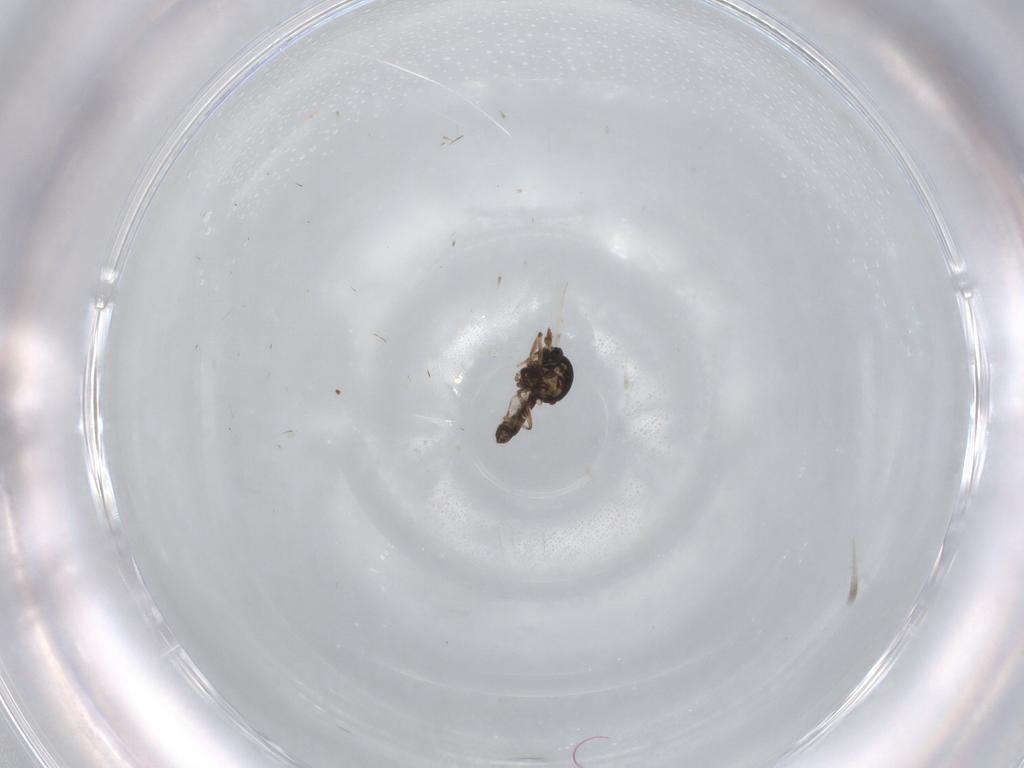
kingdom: Animalia
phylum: Arthropoda
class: Insecta
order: Diptera
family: Ceratopogonidae
